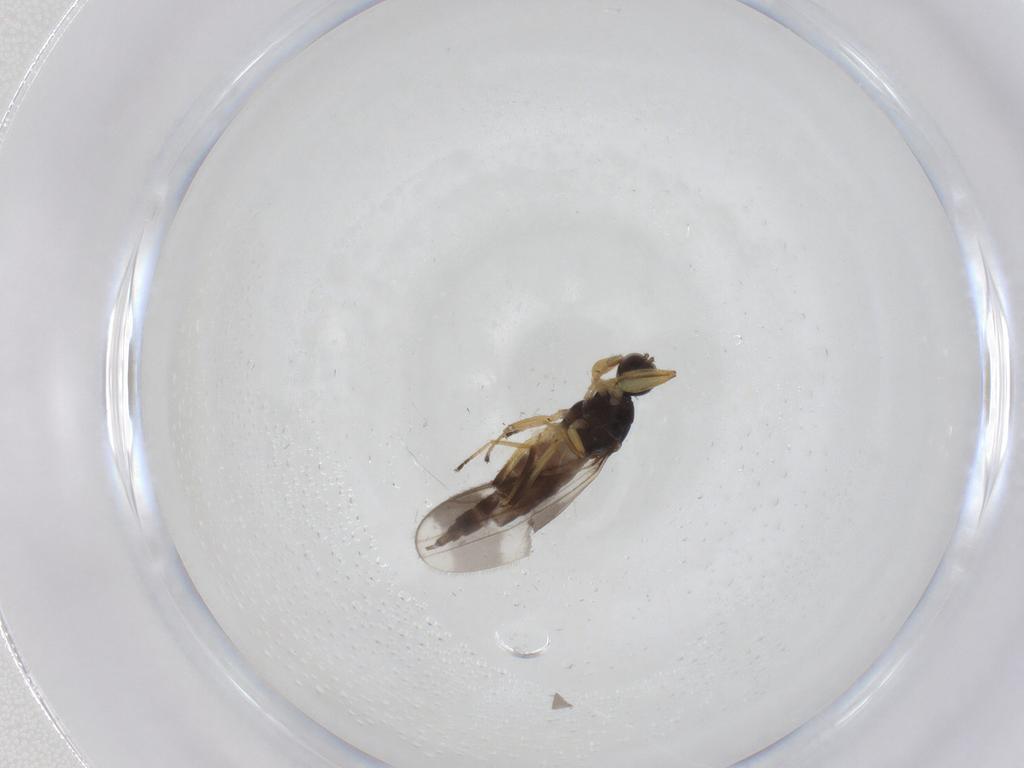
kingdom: Animalia
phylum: Arthropoda
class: Insecta
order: Diptera
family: Hybotidae
